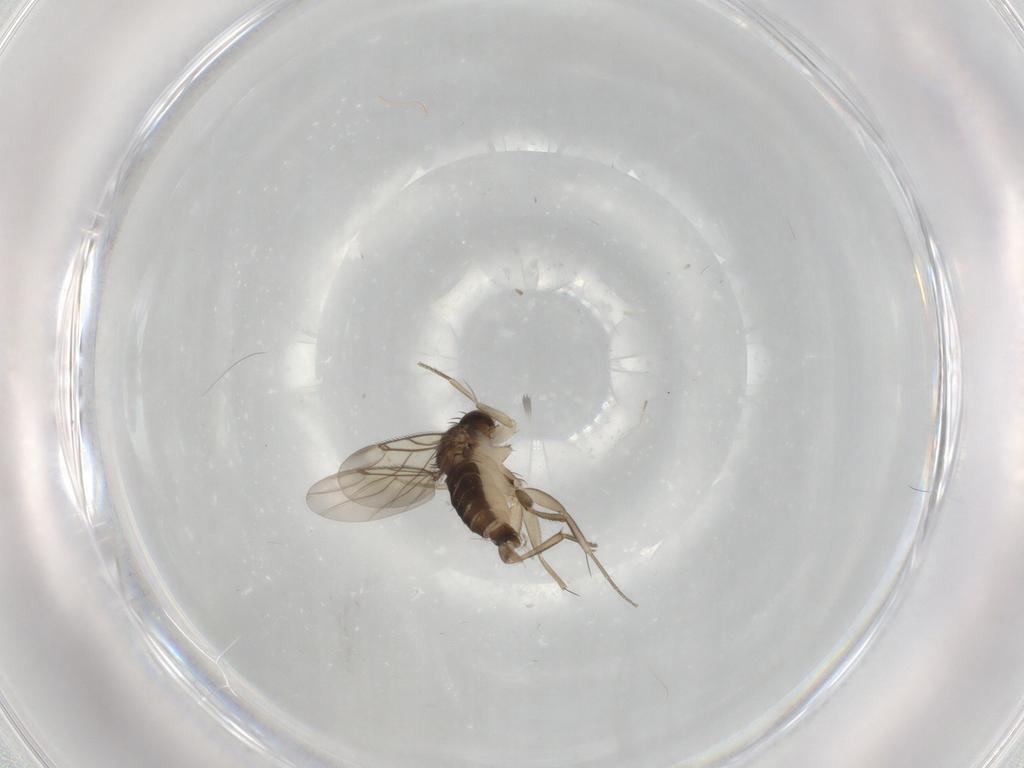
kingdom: Animalia
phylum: Arthropoda
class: Insecta
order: Diptera
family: Phoridae
